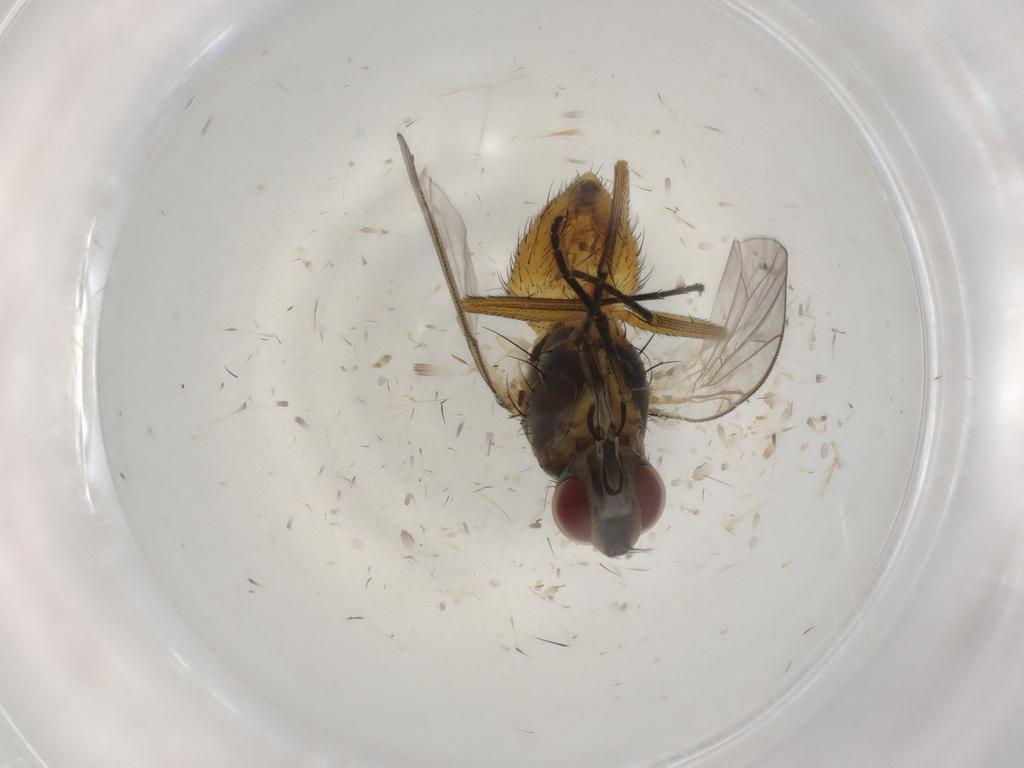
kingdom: Animalia
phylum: Arthropoda
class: Insecta
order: Diptera
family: Muscidae
